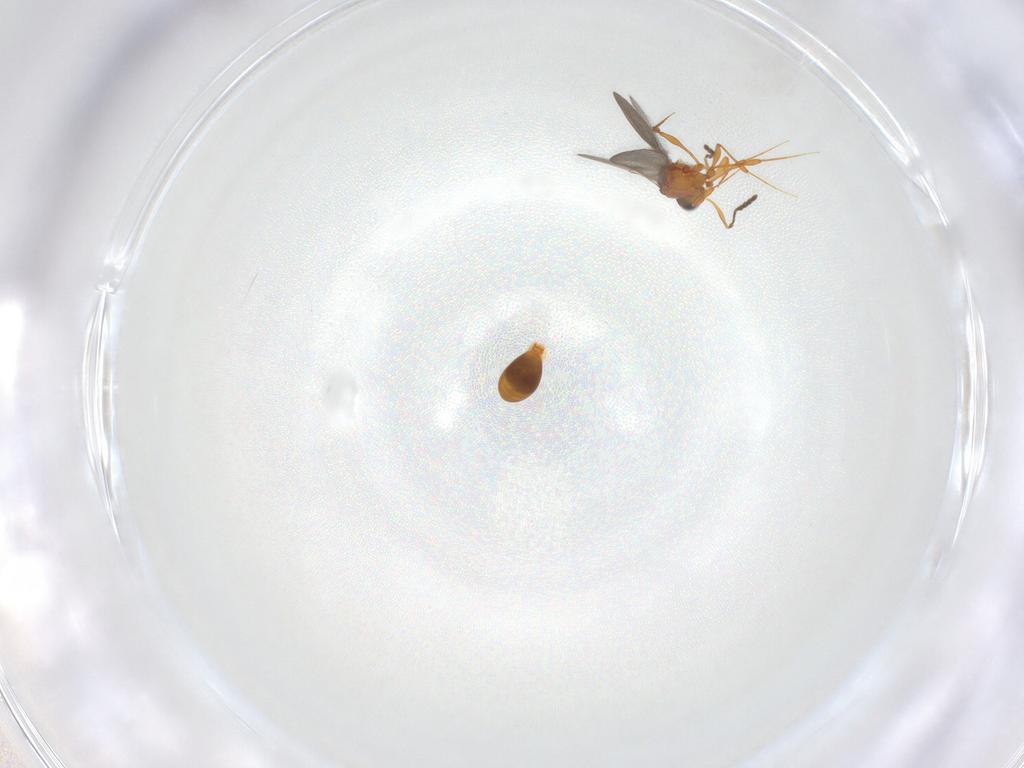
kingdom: Animalia
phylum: Arthropoda
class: Insecta
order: Hymenoptera
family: Platygastridae
